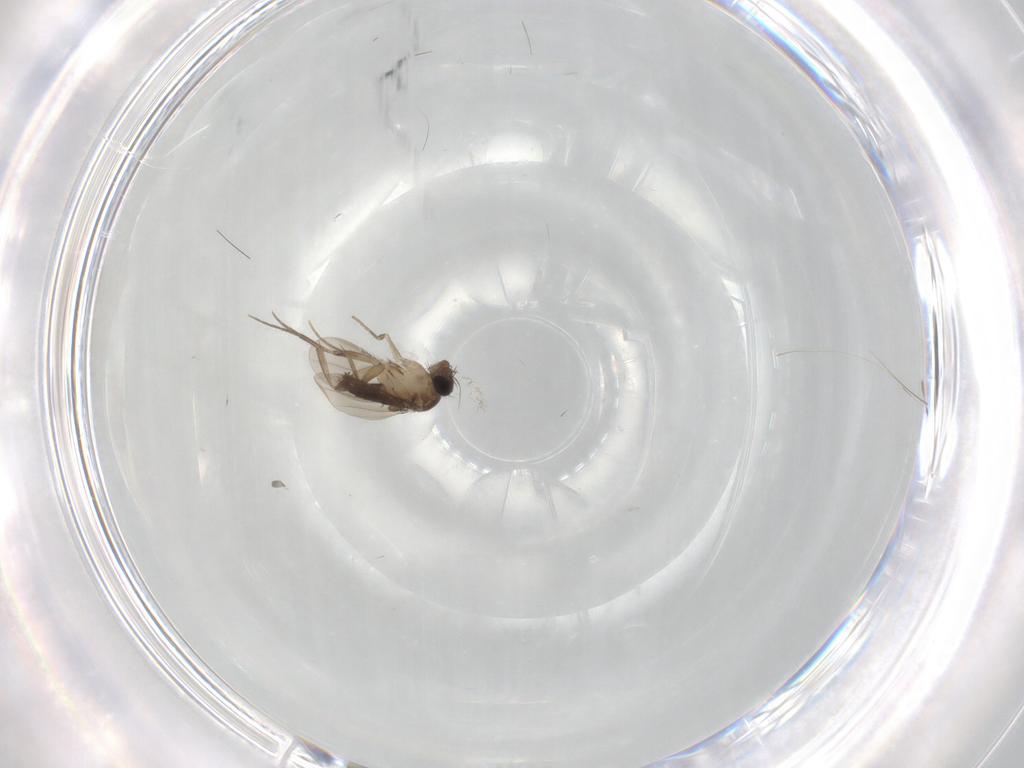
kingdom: Animalia
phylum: Arthropoda
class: Insecta
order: Diptera
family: Phoridae
